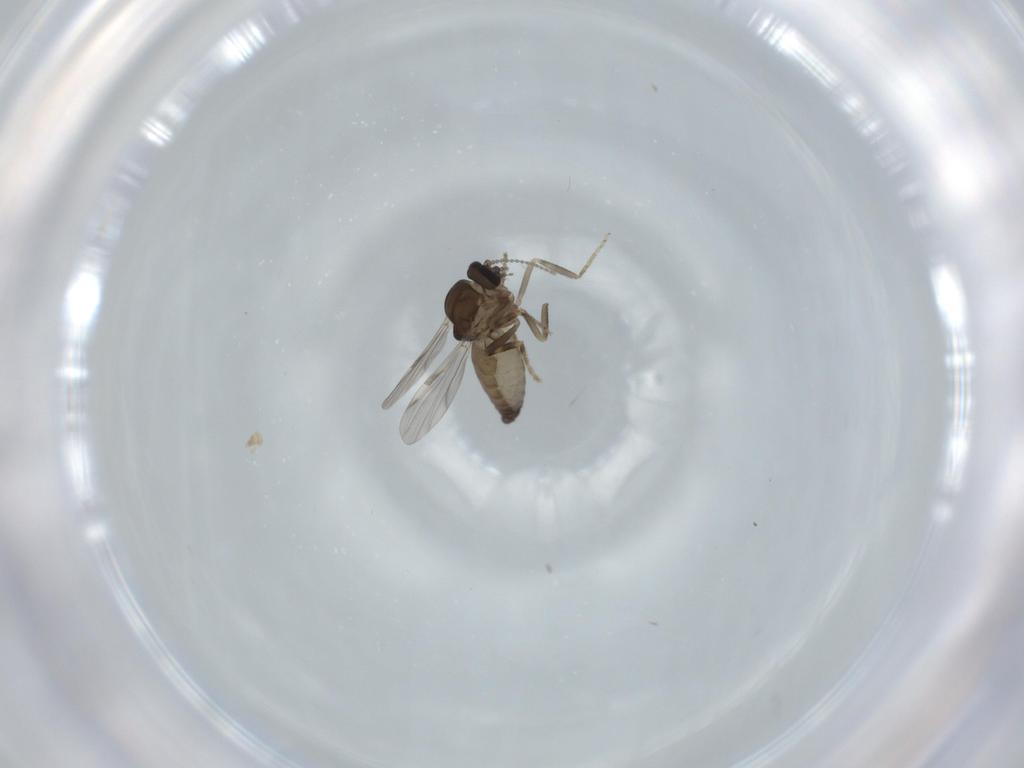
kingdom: Animalia
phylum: Arthropoda
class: Insecta
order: Diptera
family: Ceratopogonidae
